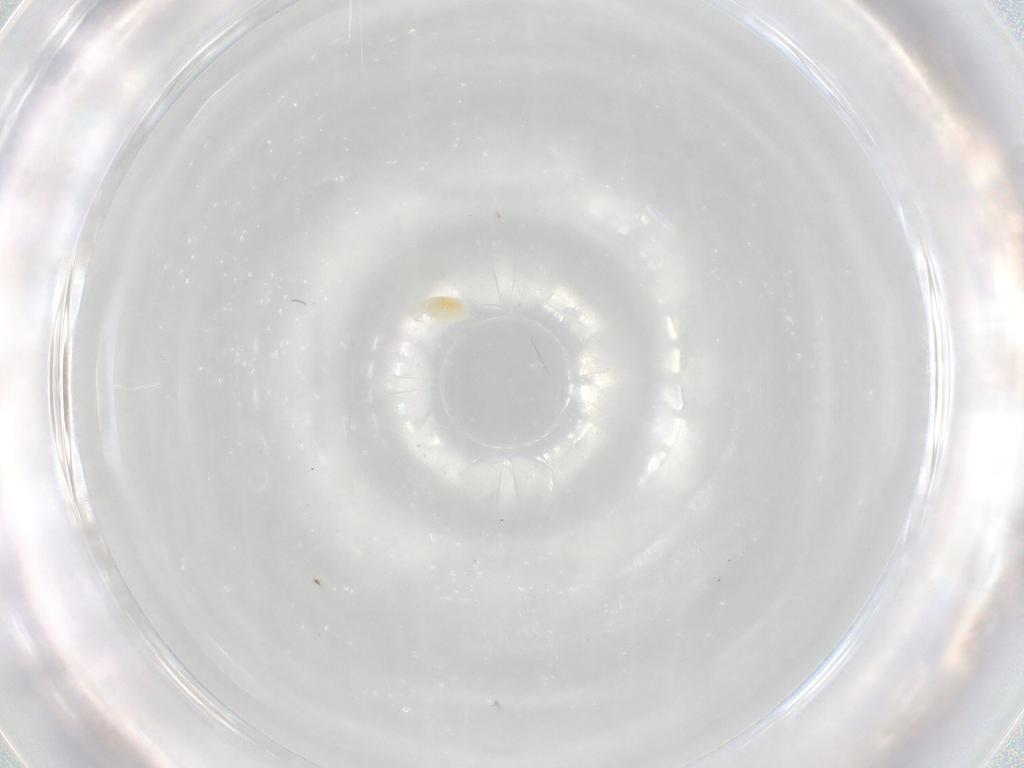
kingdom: Animalia
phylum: Arthropoda
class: Arachnida
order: Trombidiformes
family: Eupodidae
